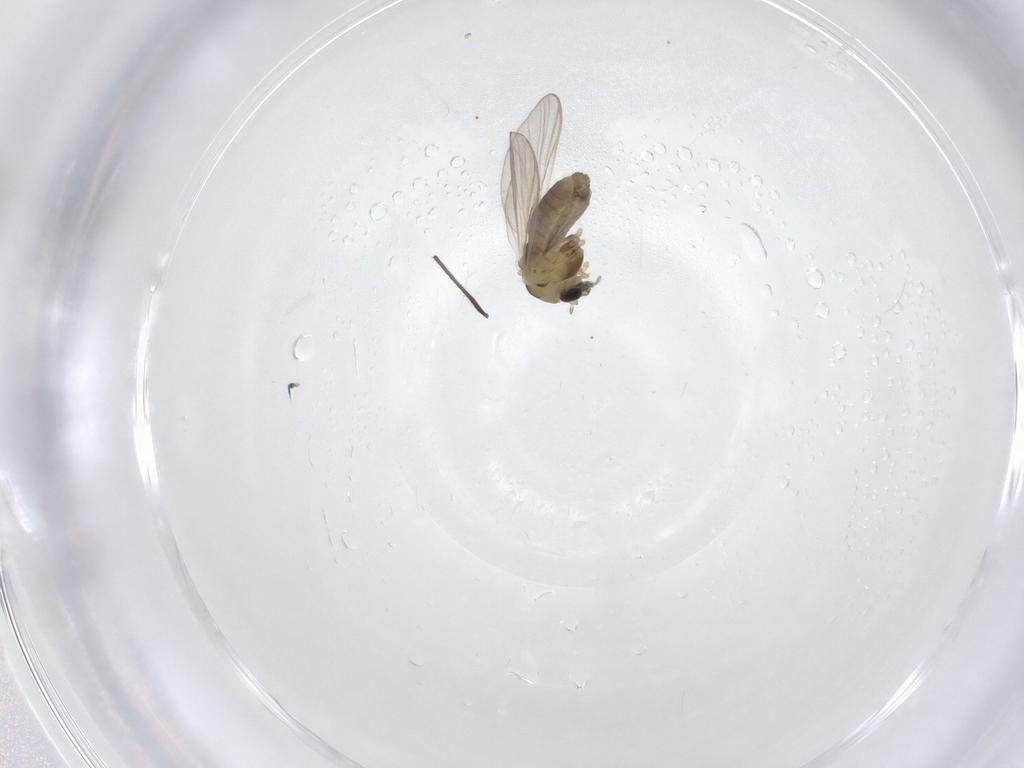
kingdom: Animalia
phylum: Arthropoda
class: Insecta
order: Diptera
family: Chironomidae
